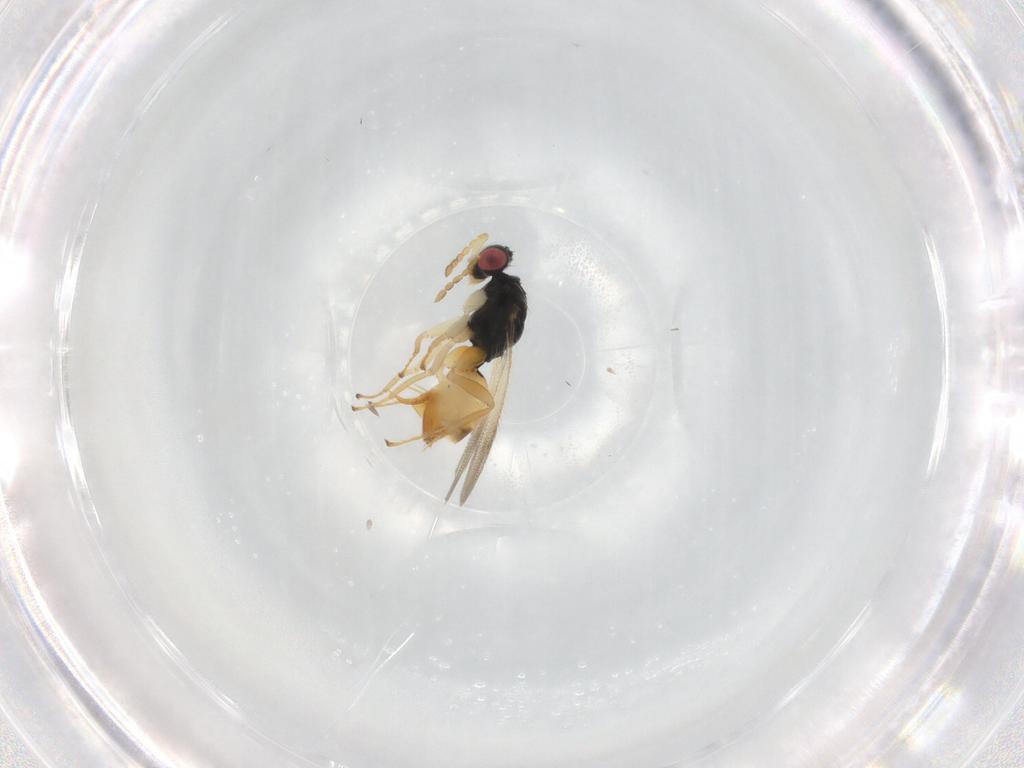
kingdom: Animalia
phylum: Arthropoda
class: Insecta
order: Hymenoptera
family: Eulophidae
